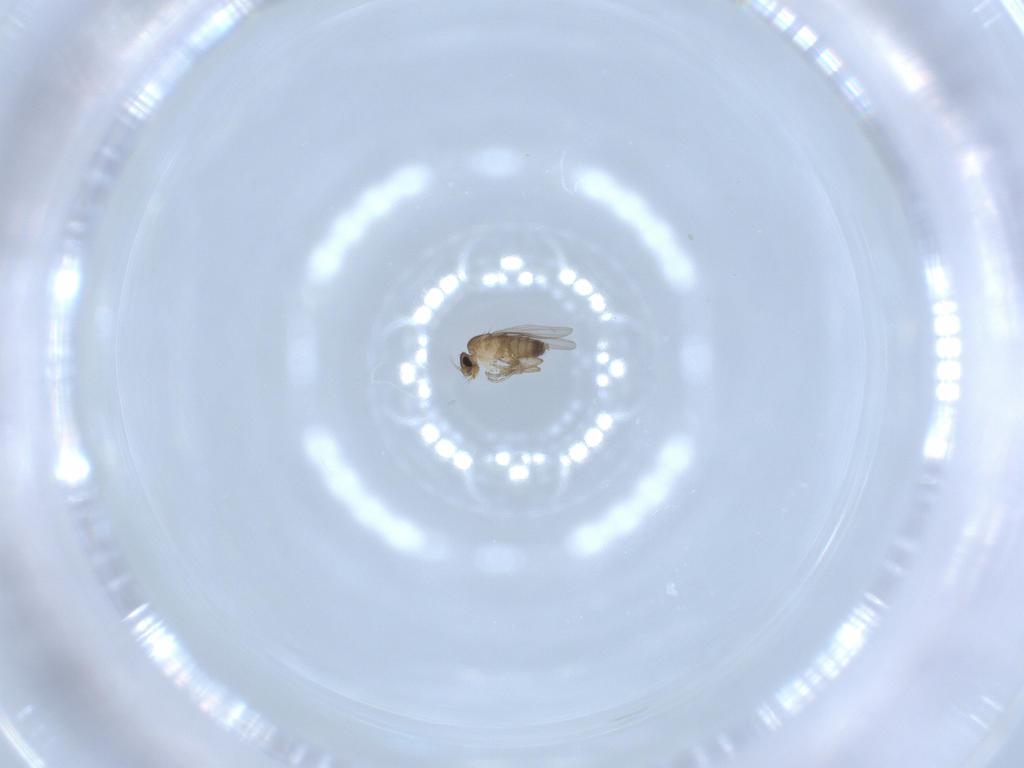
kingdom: Animalia
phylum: Arthropoda
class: Insecta
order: Diptera
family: Phoridae
